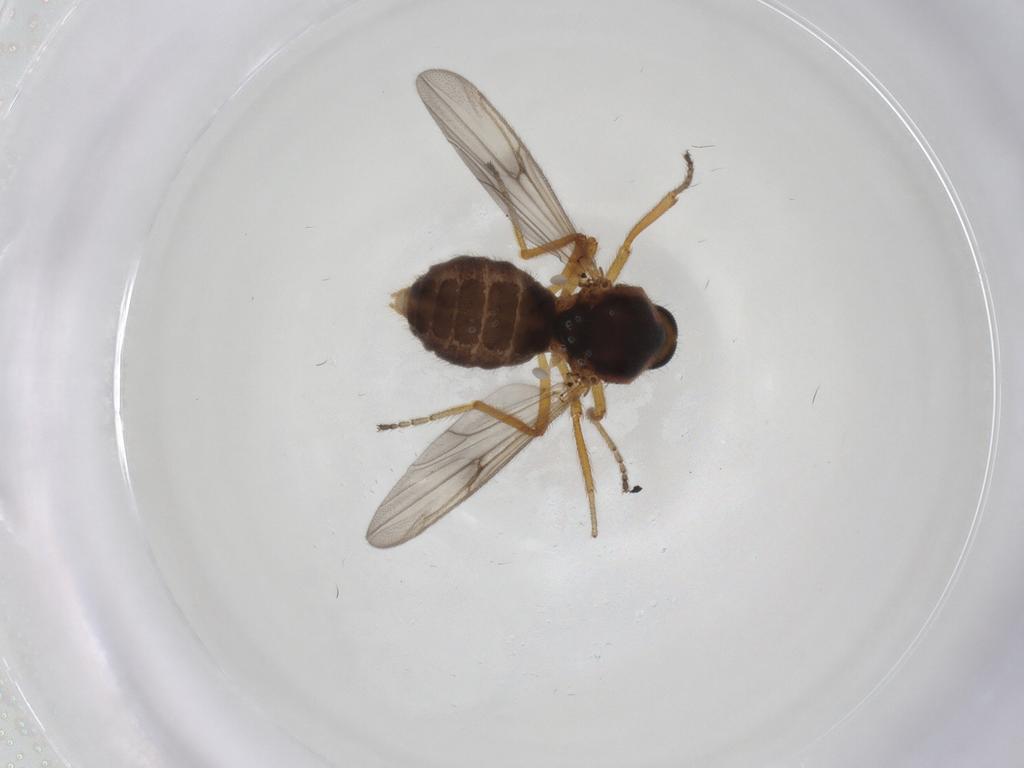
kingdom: Animalia
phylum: Arthropoda
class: Insecta
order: Diptera
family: Ceratopogonidae
